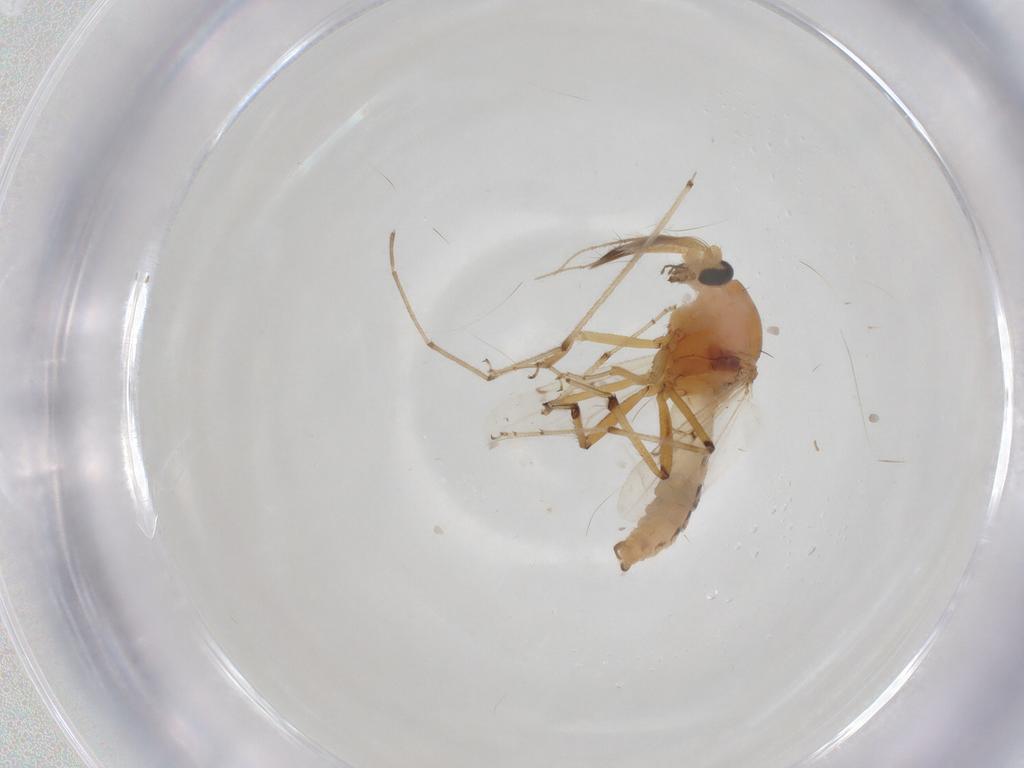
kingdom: Animalia
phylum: Arthropoda
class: Insecta
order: Diptera
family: Ceratopogonidae
